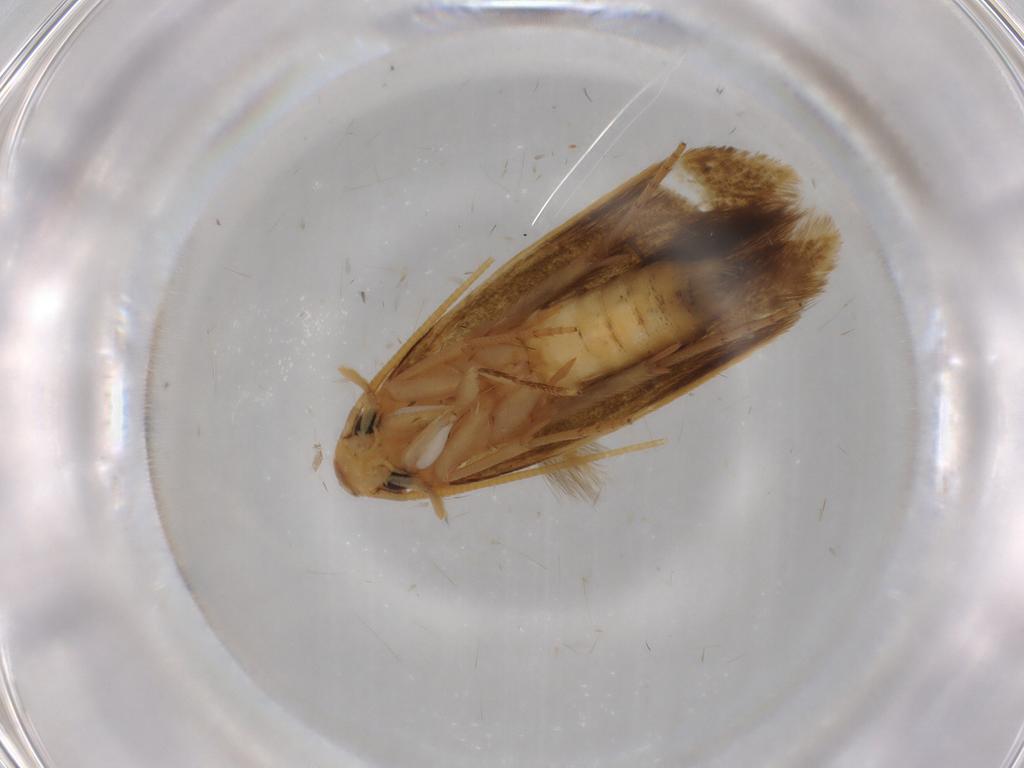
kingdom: Animalia
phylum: Arthropoda
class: Insecta
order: Lepidoptera
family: Tineidae
